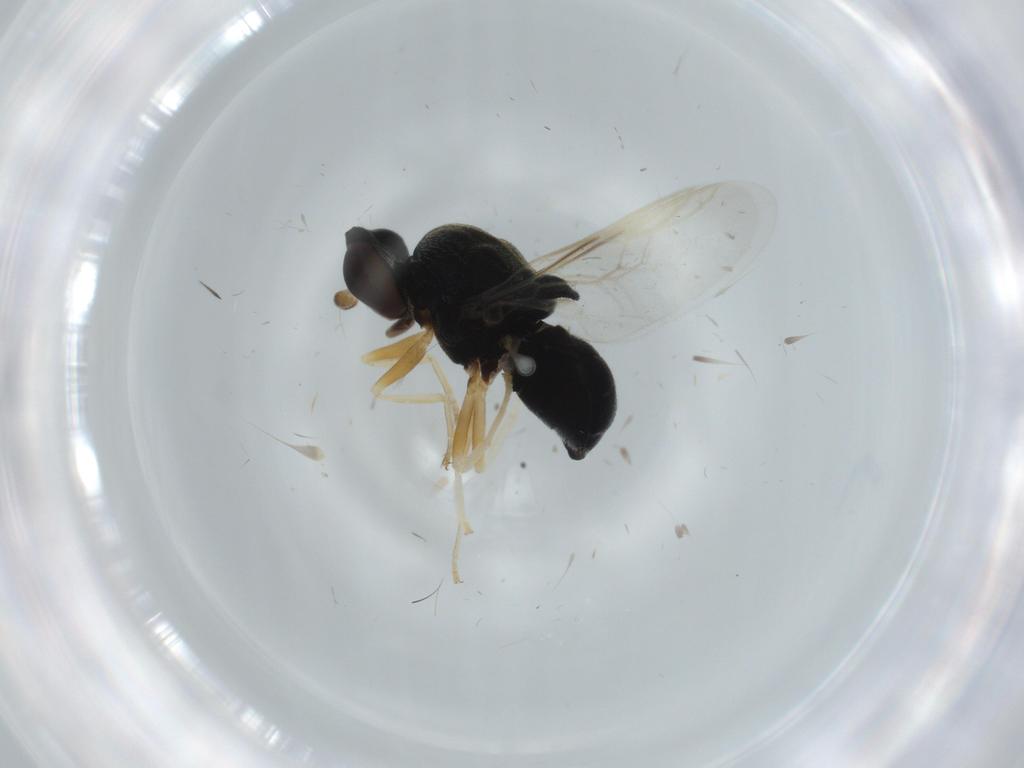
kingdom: Animalia
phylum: Arthropoda
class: Insecta
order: Diptera
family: Stratiomyidae
